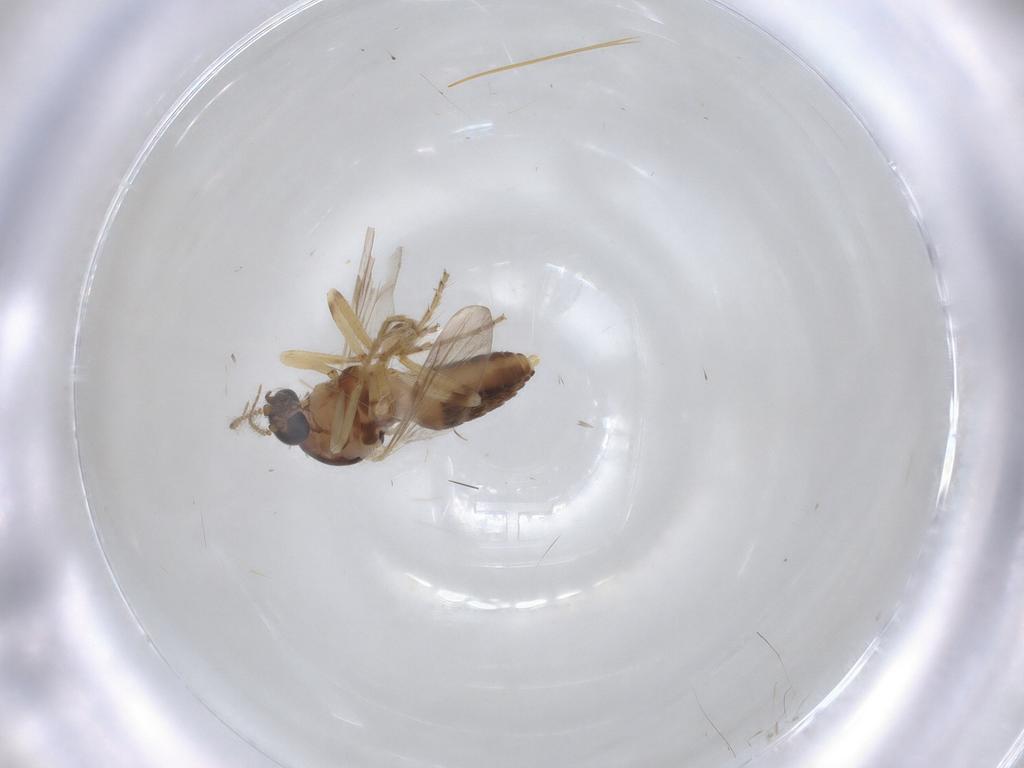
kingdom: Animalia
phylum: Arthropoda
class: Insecta
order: Diptera
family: Ceratopogonidae
